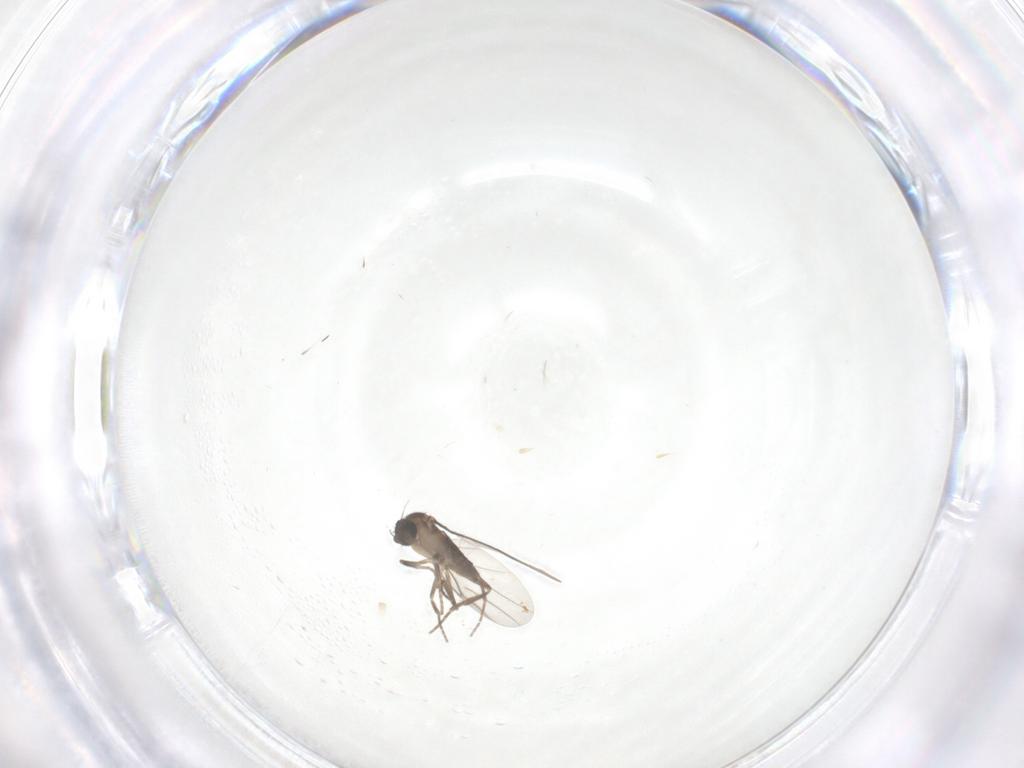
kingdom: Animalia
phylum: Arthropoda
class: Insecta
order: Diptera
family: Phoridae
